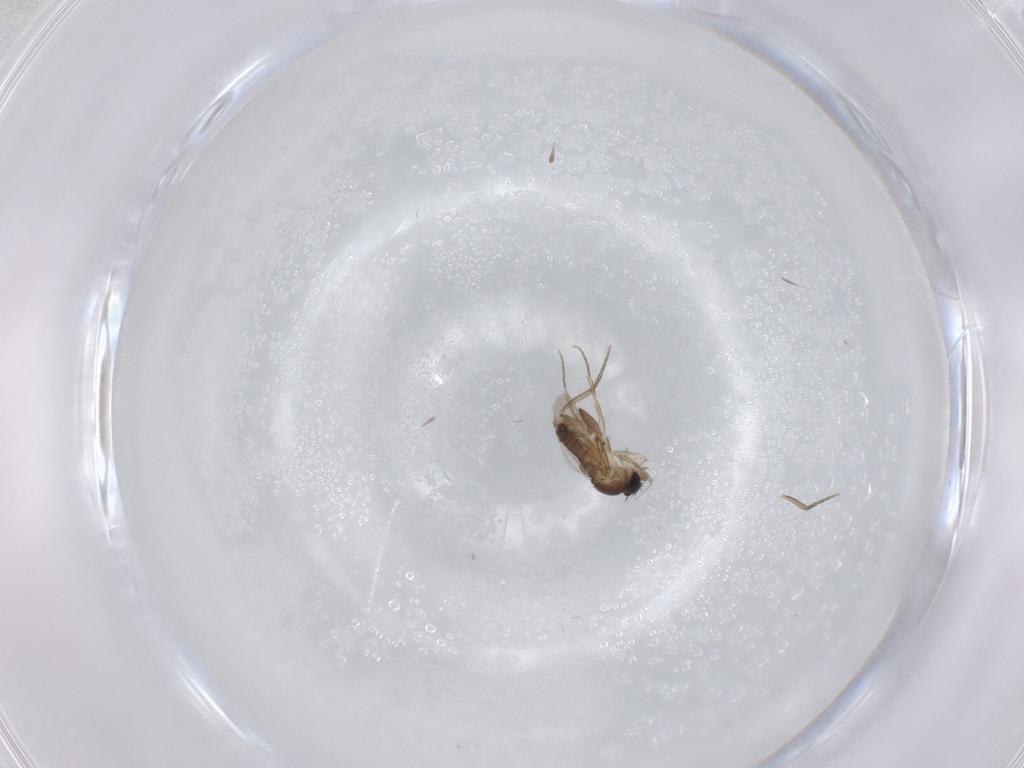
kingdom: Animalia
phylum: Arthropoda
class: Insecta
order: Diptera
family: Phoridae
